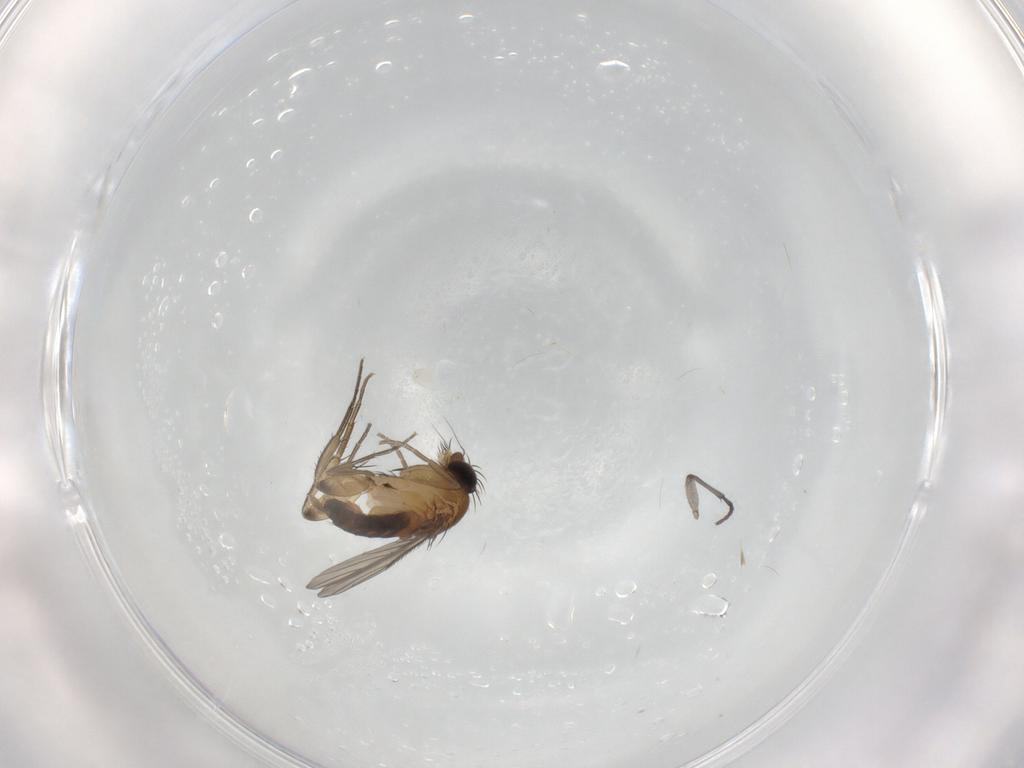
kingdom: Animalia
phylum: Arthropoda
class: Insecta
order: Diptera
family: Phoridae
